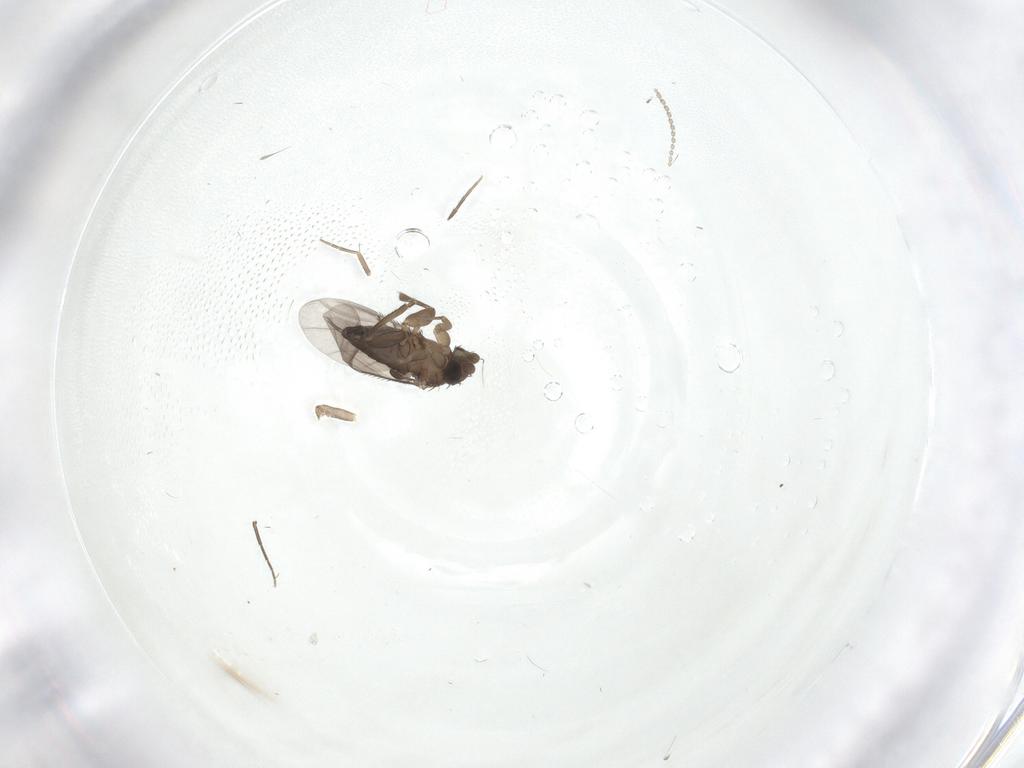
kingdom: Animalia
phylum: Arthropoda
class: Insecta
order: Diptera
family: Phoridae
